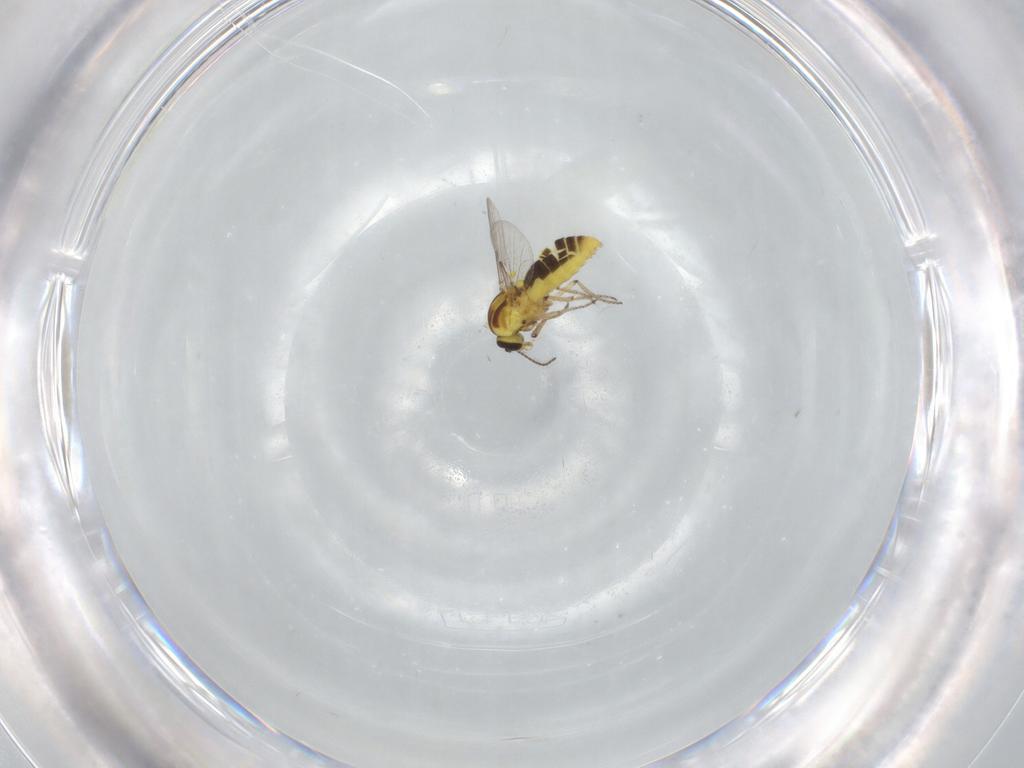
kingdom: Animalia
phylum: Arthropoda
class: Insecta
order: Diptera
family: Ceratopogonidae
